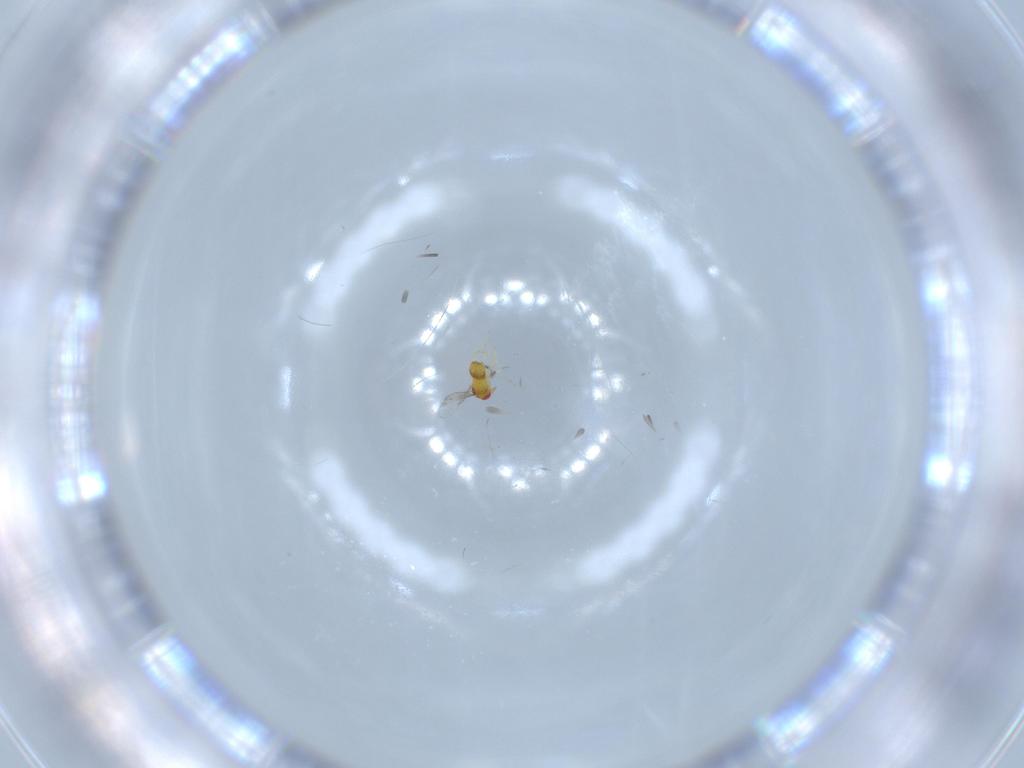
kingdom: Animalia
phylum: Arthropoda
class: Insecta
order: Hymenoptera
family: Trichogrammatidae
